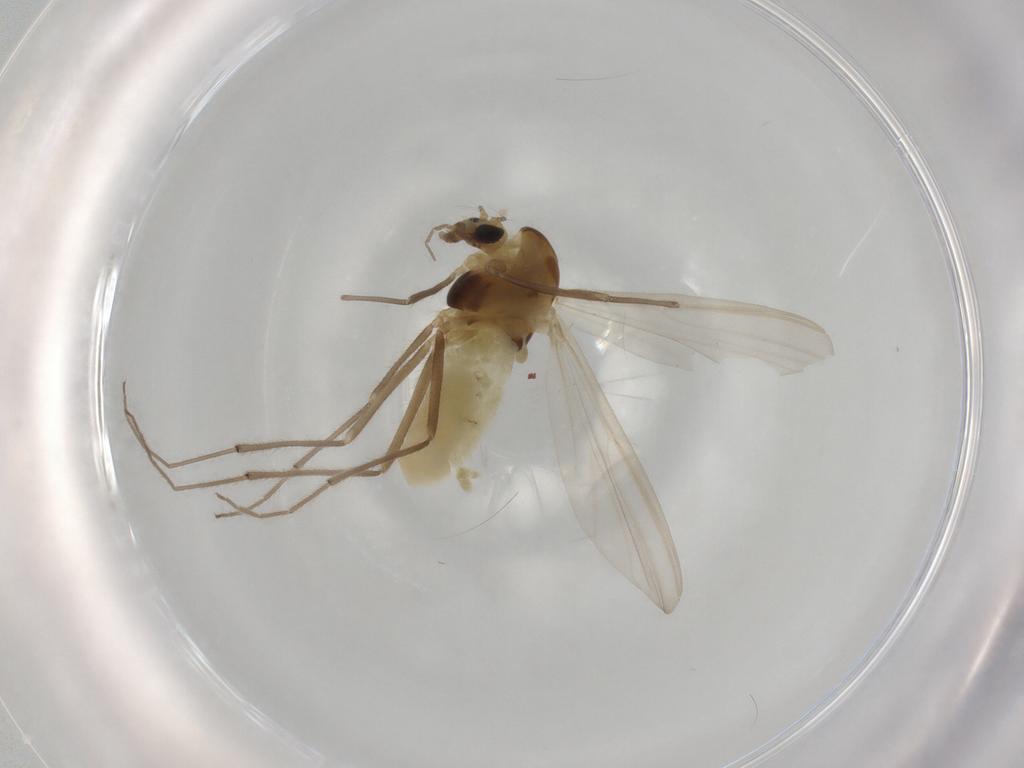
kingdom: Animalia
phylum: Arthropoda
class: Insecta
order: Diptera
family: Chironomidae
